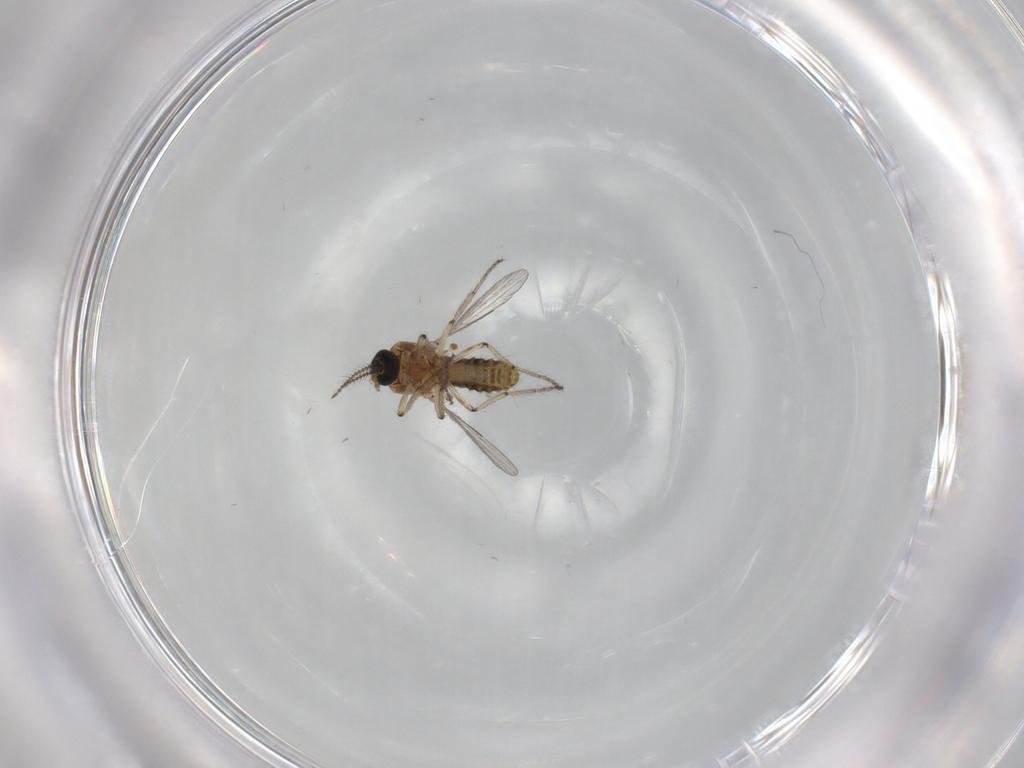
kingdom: Animalia
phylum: Arthropoda
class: Insecta
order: Diptera
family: Ceratopogonidae
